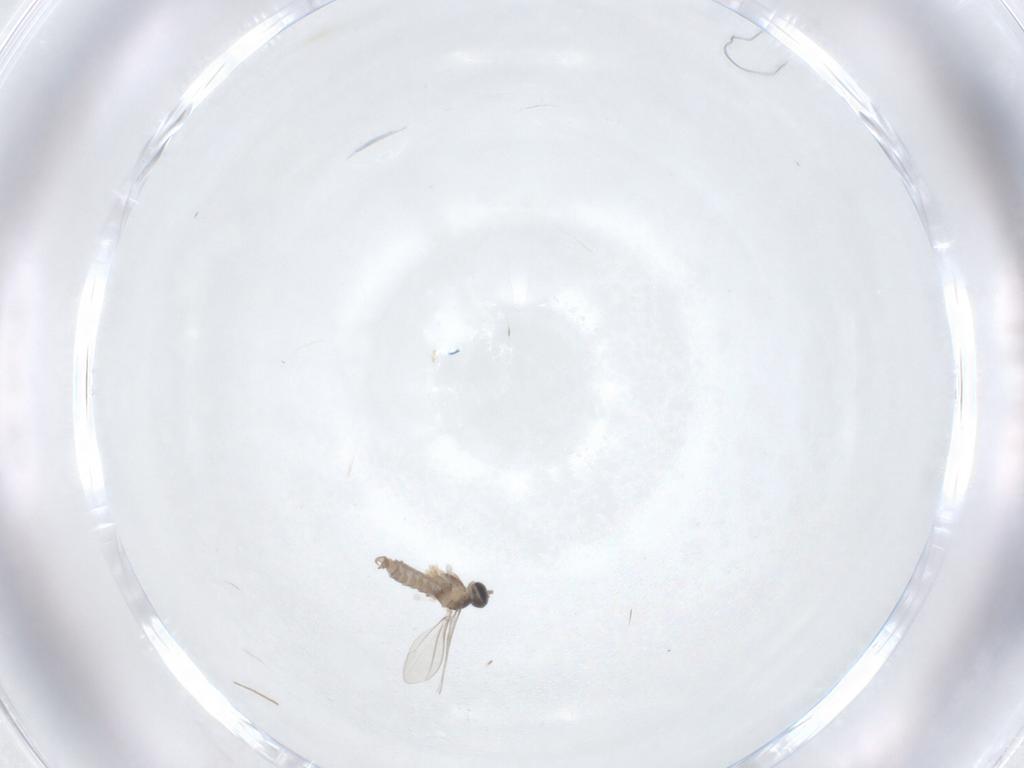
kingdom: Animalia
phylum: Arthropoda
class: Insecta
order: Diptera
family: Cecidomyiidae
